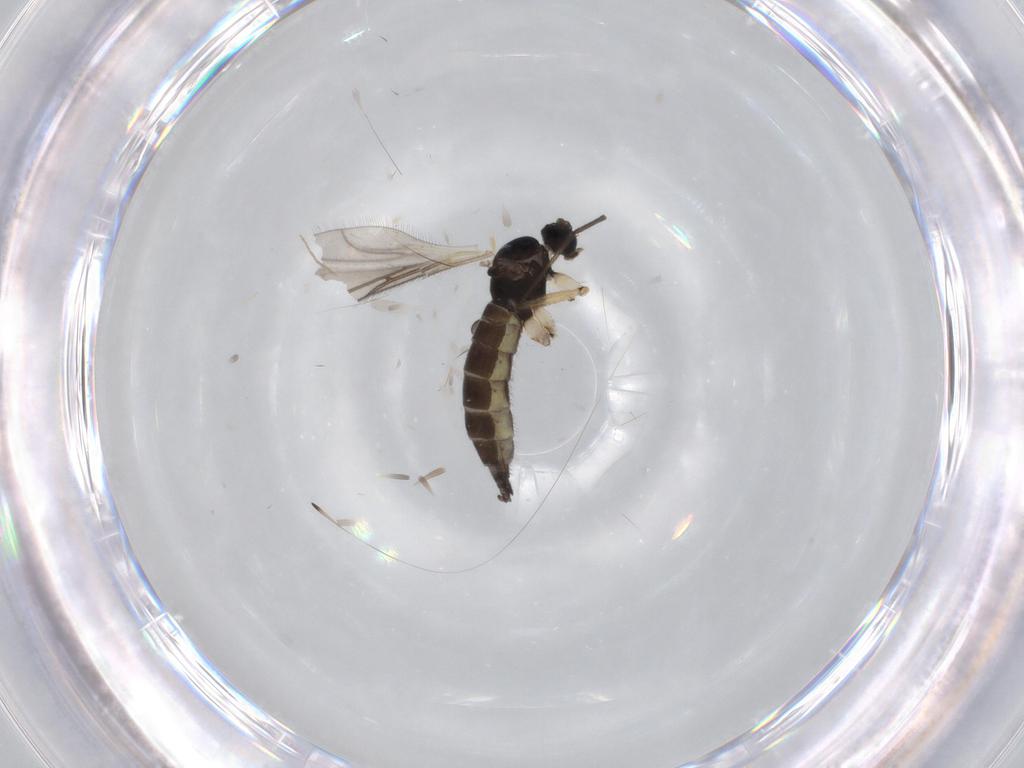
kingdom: Animalia
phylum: Arthropoda
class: Insecta
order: Diptera
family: Sciaridae
